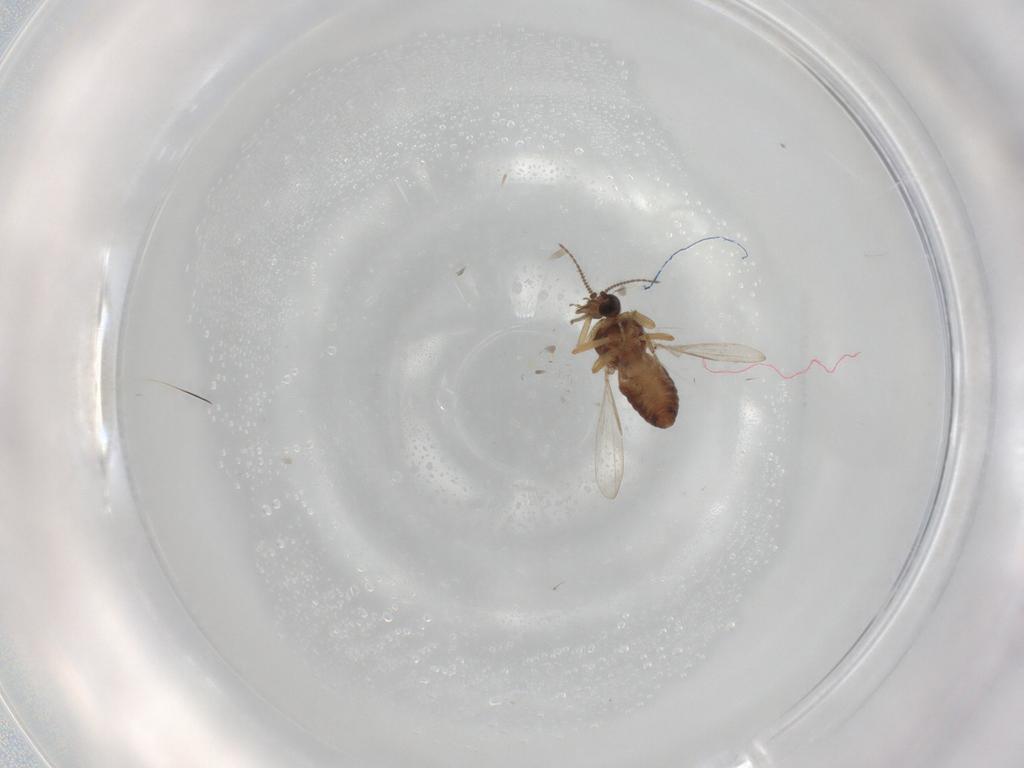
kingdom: Animalia
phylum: Arthropoda
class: Insecta
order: Diptera
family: Ceratopogonidae
